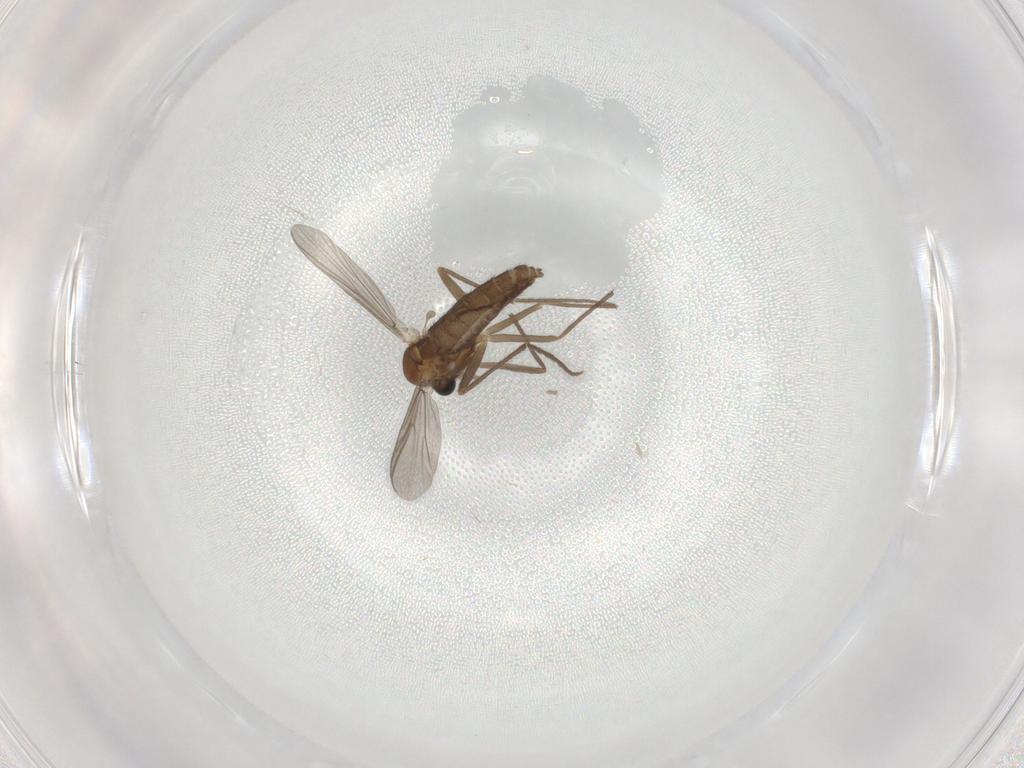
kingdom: Animalia
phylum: Arthropoda
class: Insecta
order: Diptera
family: Chironomidae
